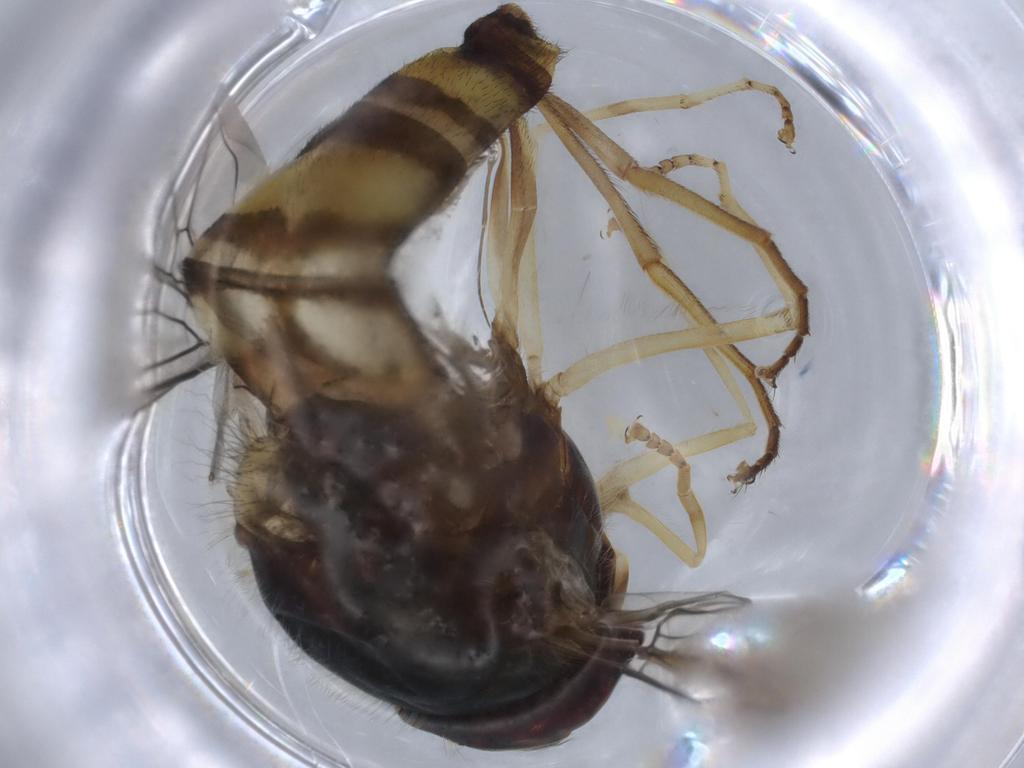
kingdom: Animalia
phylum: Arthropoda
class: Insecta
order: Diptera
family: Syrphidae
